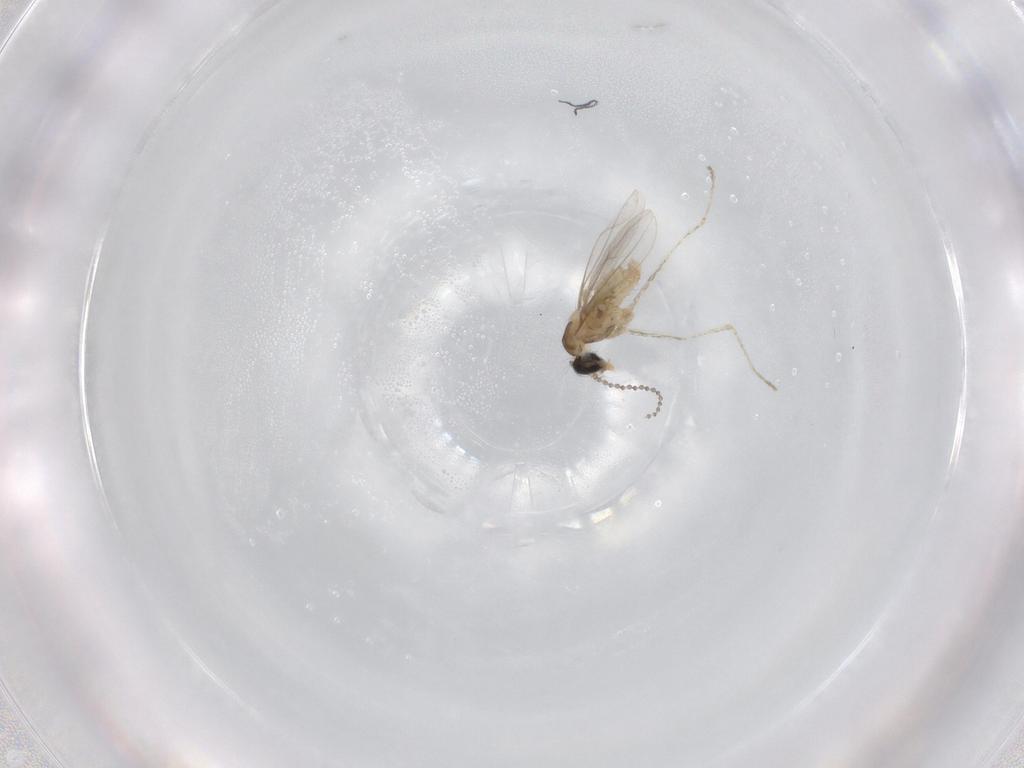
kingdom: Animalia
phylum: Arthropoda
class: Insecta
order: Diptera
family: Cecidomyiidae
